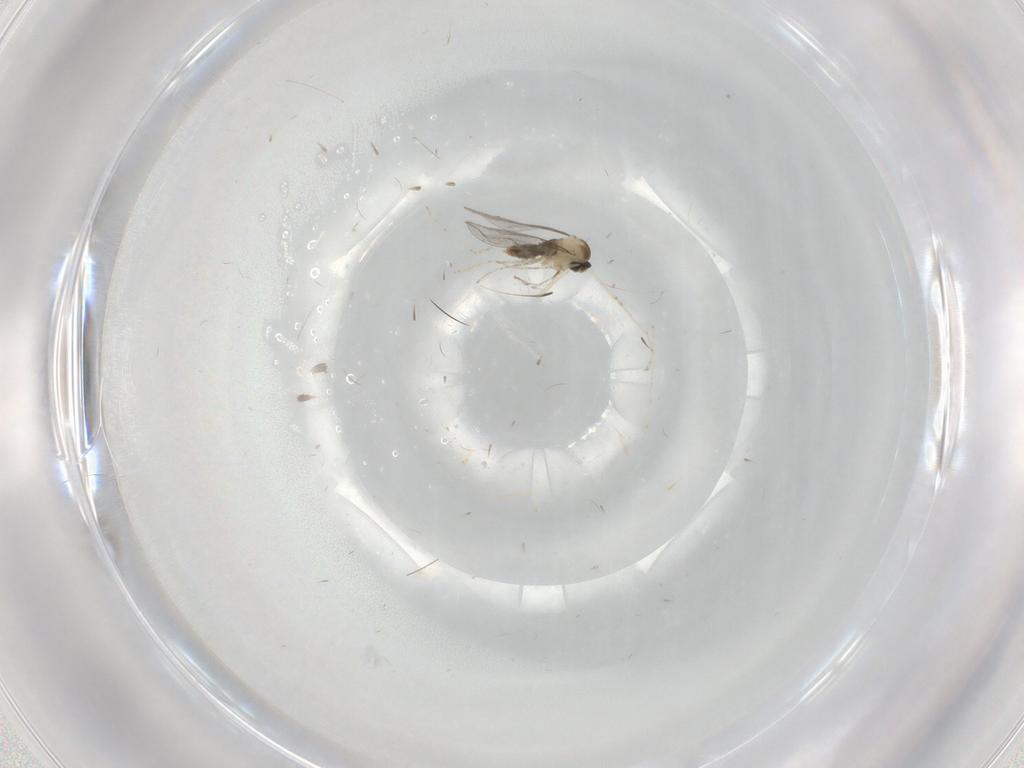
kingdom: Animalia
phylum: Arthropoda
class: Insecta
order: Diptera
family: Cecidomyiidae
